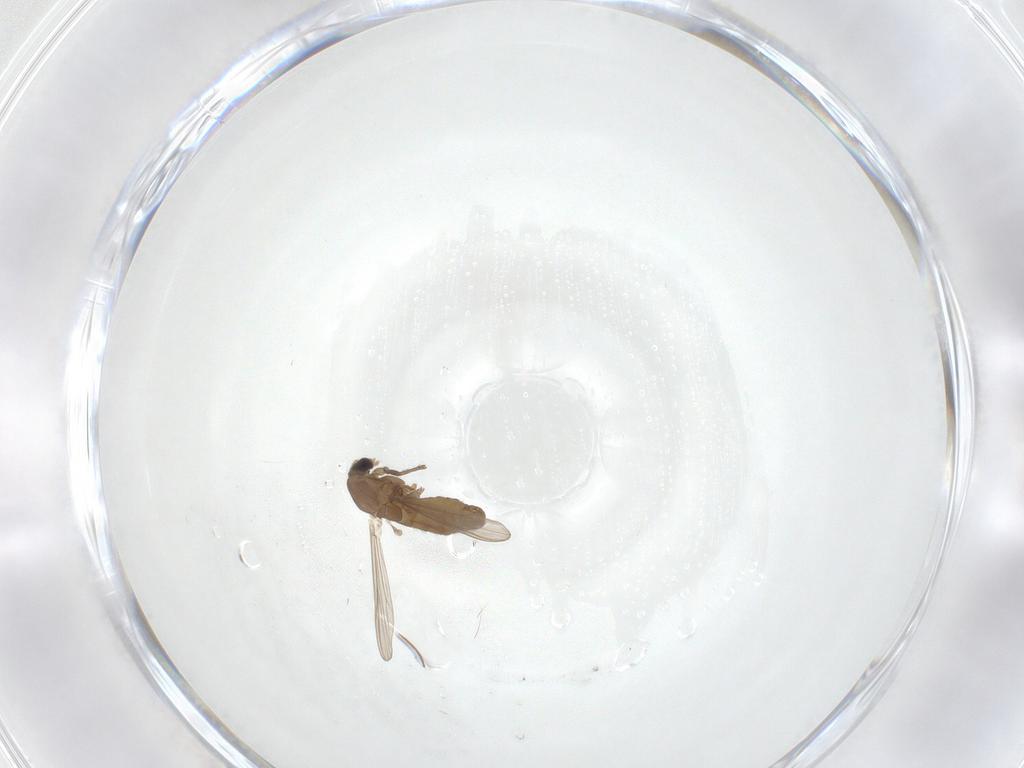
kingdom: Animalia
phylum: Arthropoda
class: Insecta
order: Diptera
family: Chironomidae
